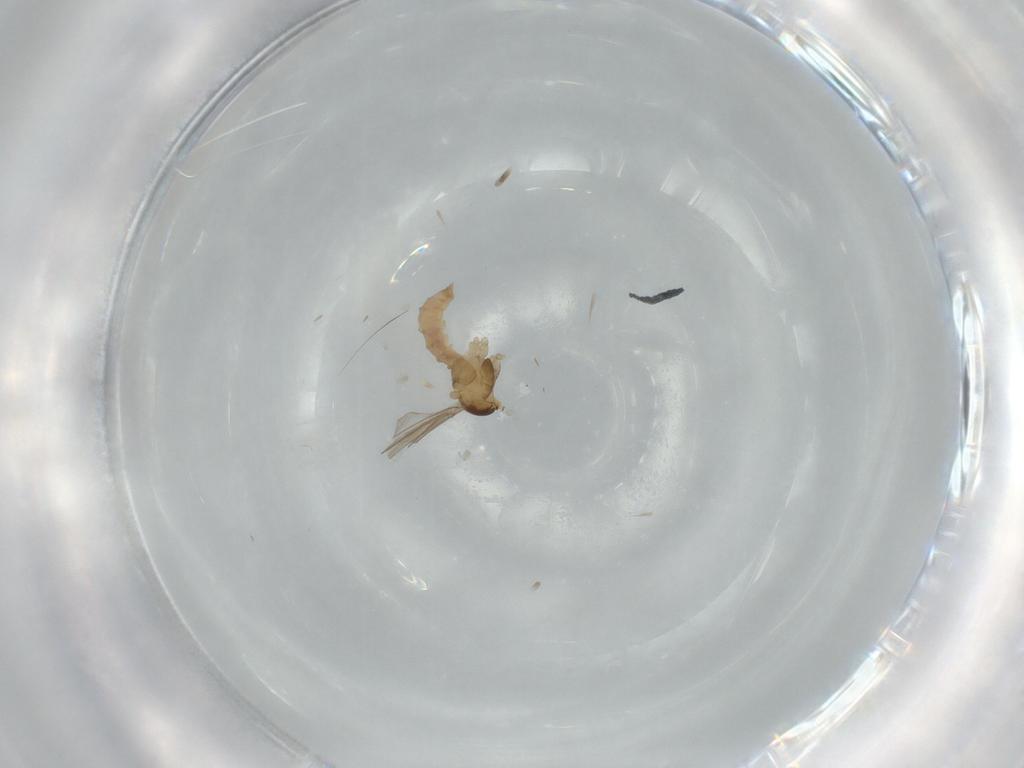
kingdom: Animalia
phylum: Arthropoda
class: Insecta
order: Diptera
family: Cecidomyiidae
